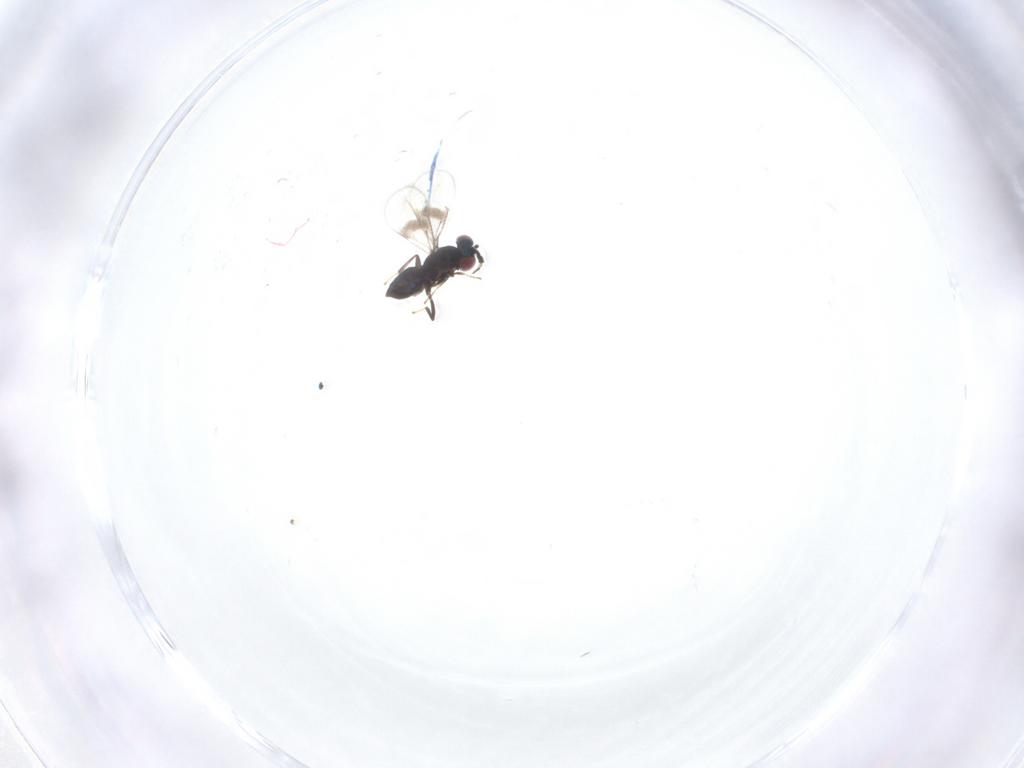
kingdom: Animalia
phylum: Arthropoda
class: Insecta
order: Hymenoptera
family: Eulophidae
